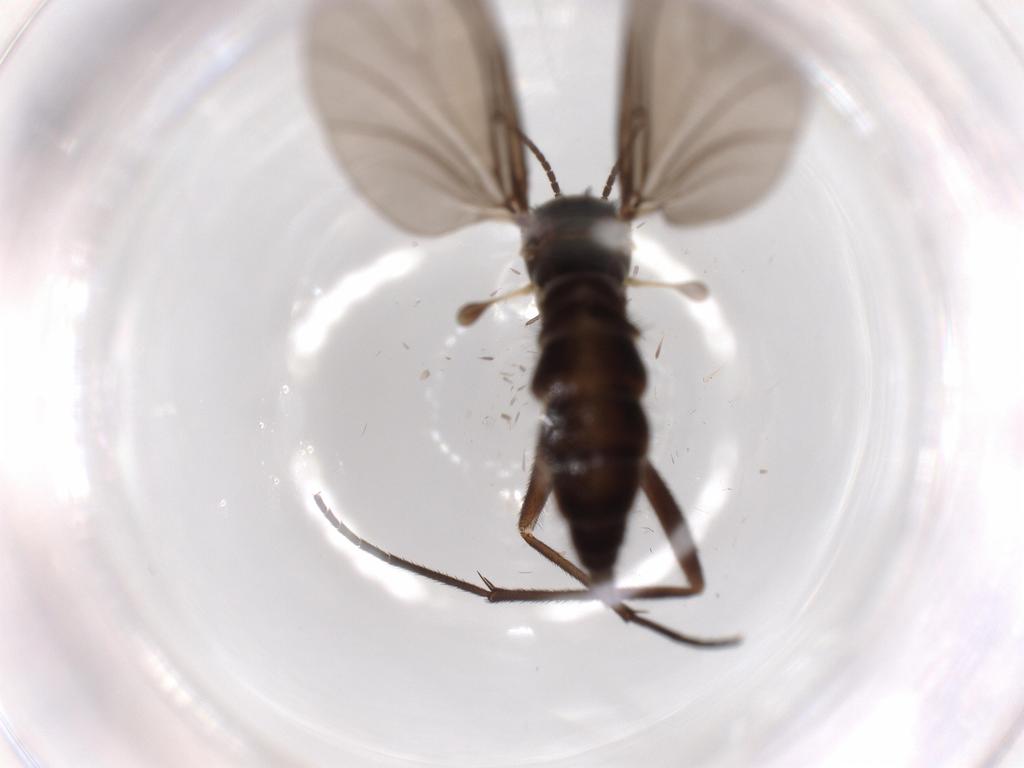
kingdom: Animalia
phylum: Arthropoda
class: Insecta
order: Diptera
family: Sciaridae
